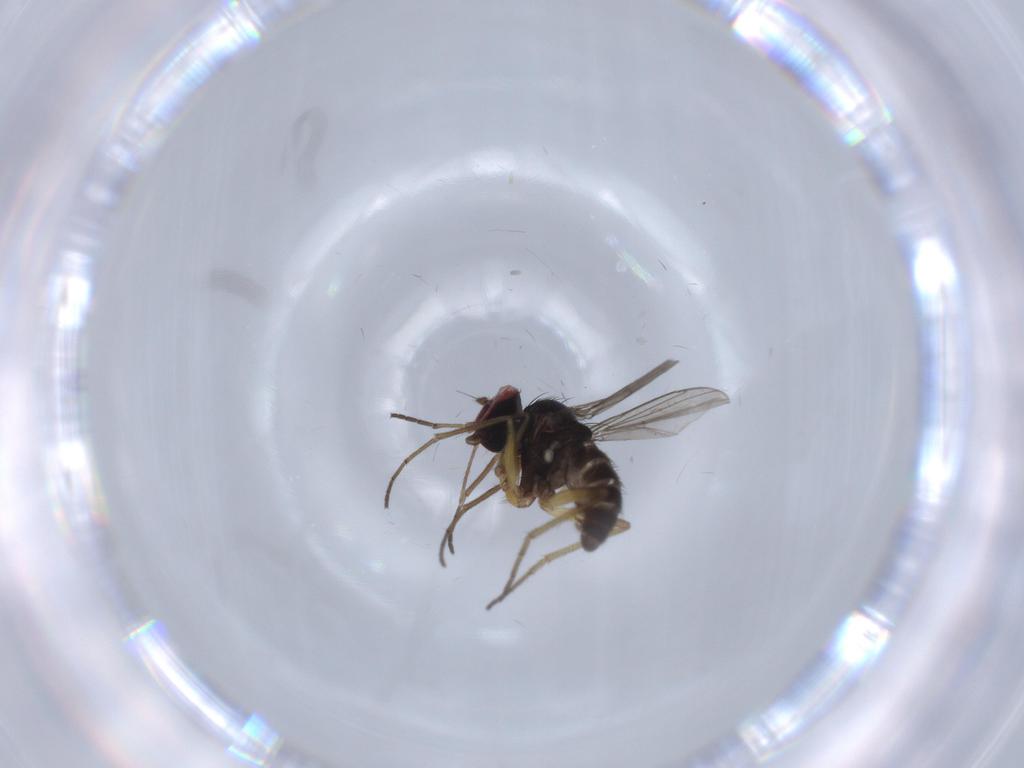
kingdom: Animalia
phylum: Arthropoda
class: Insecta
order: Diptera
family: Dolichopodidae
